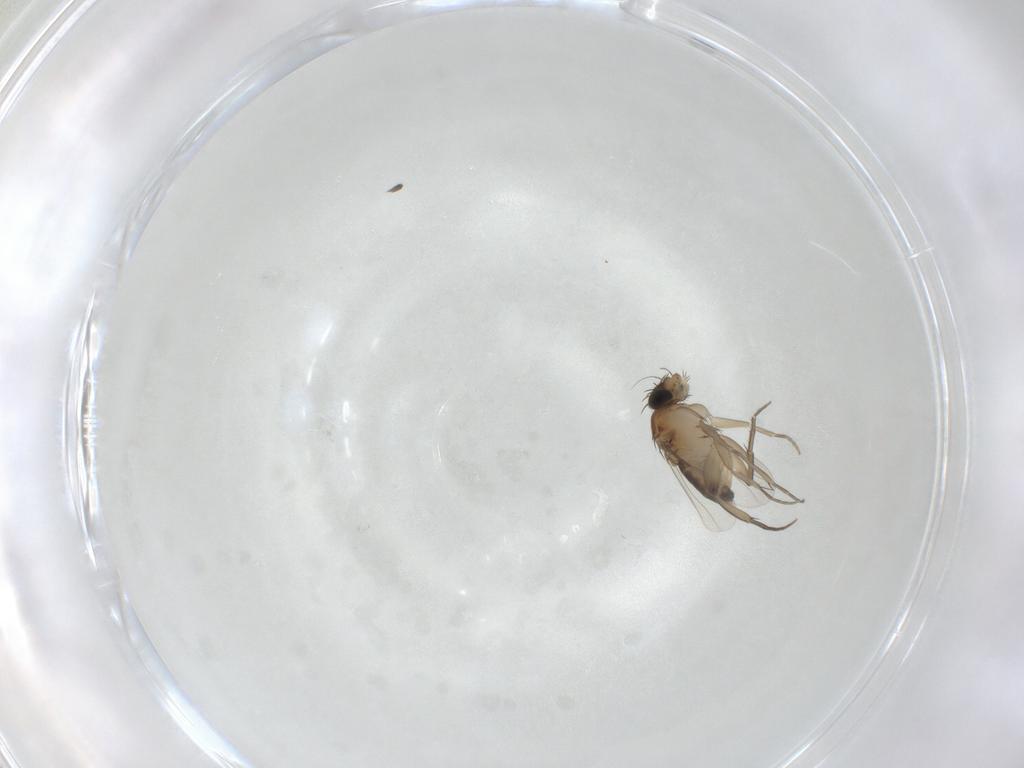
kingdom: Animalia
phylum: Arthropoda
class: Insecta
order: Diptera
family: Phoridae
